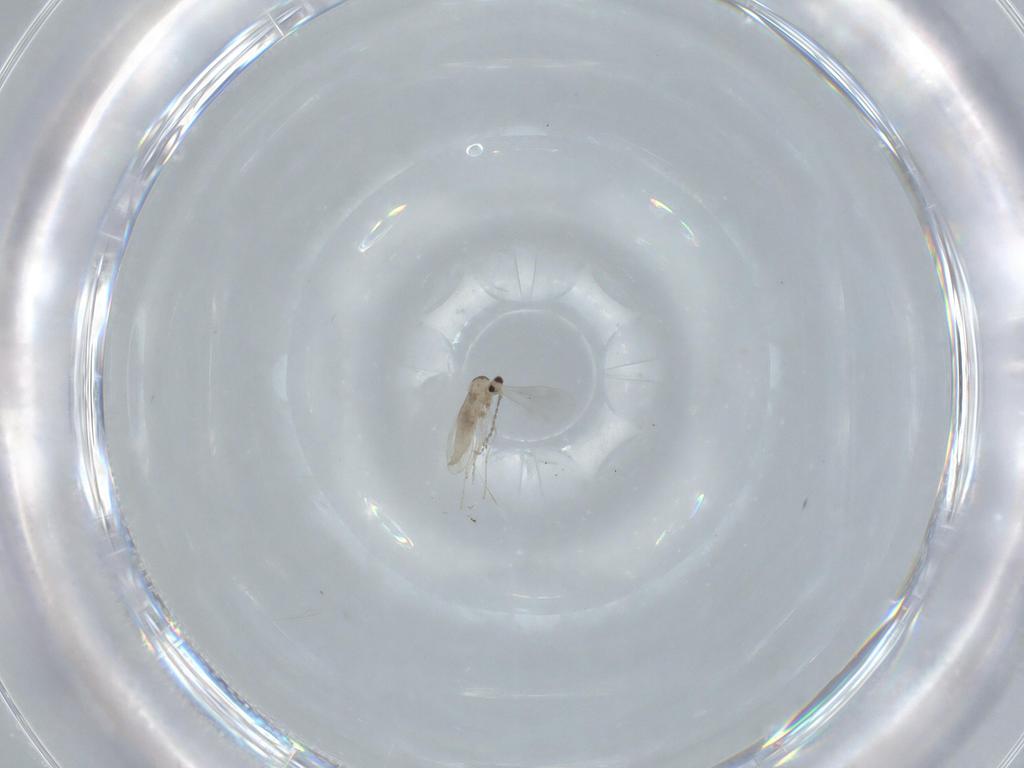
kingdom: Animalia
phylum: Arthropoda
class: Insecta
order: Diptera
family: Cecidomyiidae
